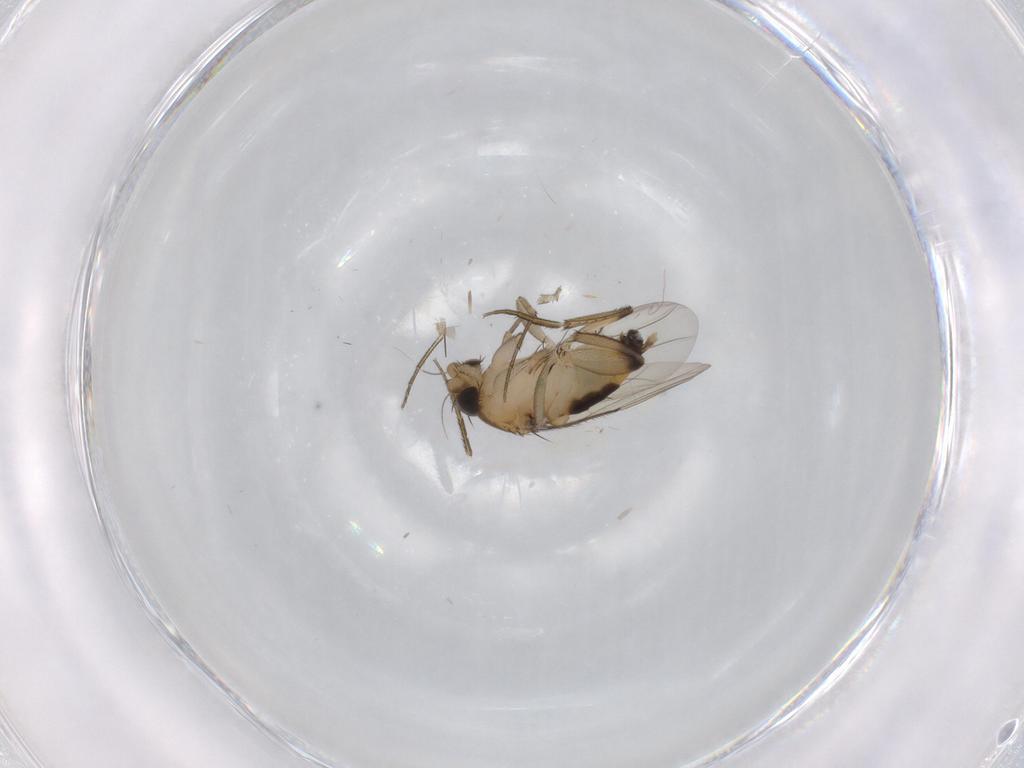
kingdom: Animalia
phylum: Arthropoda
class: Insecta
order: Diptera
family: Phoridae
